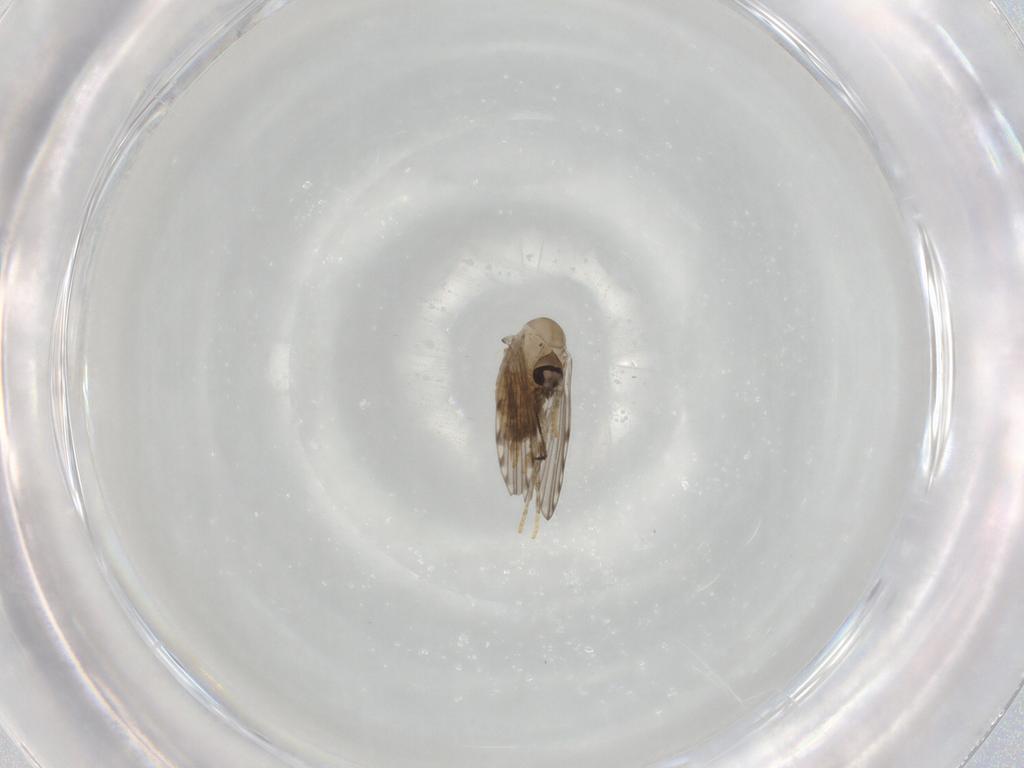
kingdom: Animalia
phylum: Arthropoda
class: Insecta
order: Diptera
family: Psychodidae
